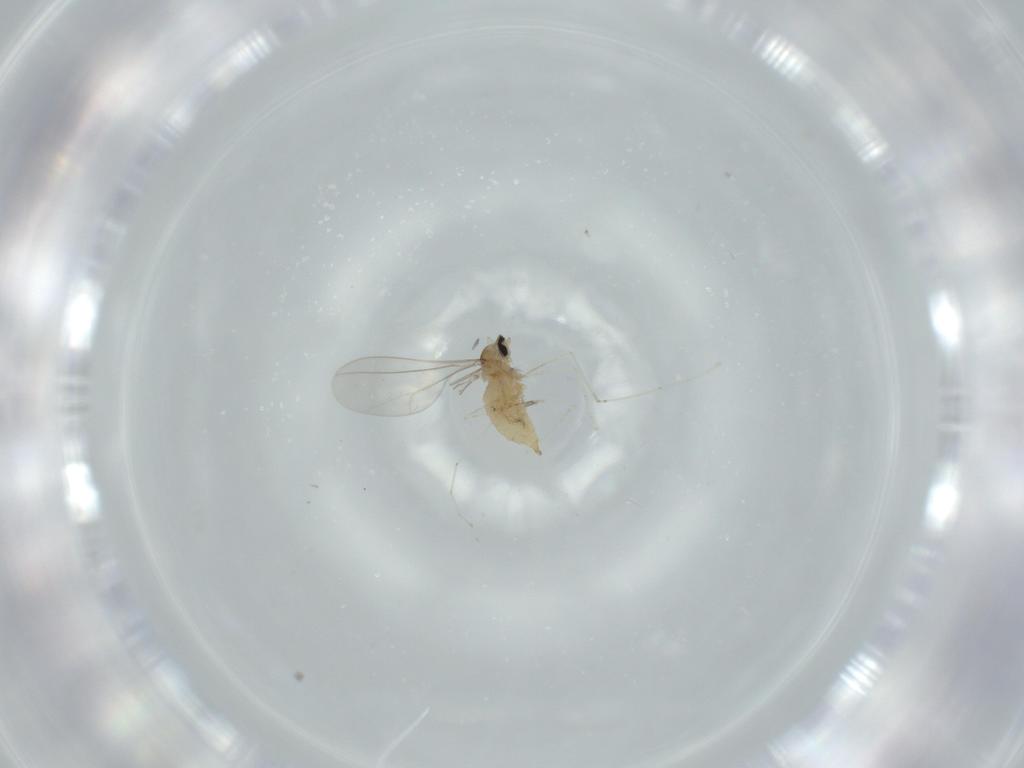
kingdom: Animalia
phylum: Arthropoda
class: Insecta
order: Diptera
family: Cecidomyiidae
